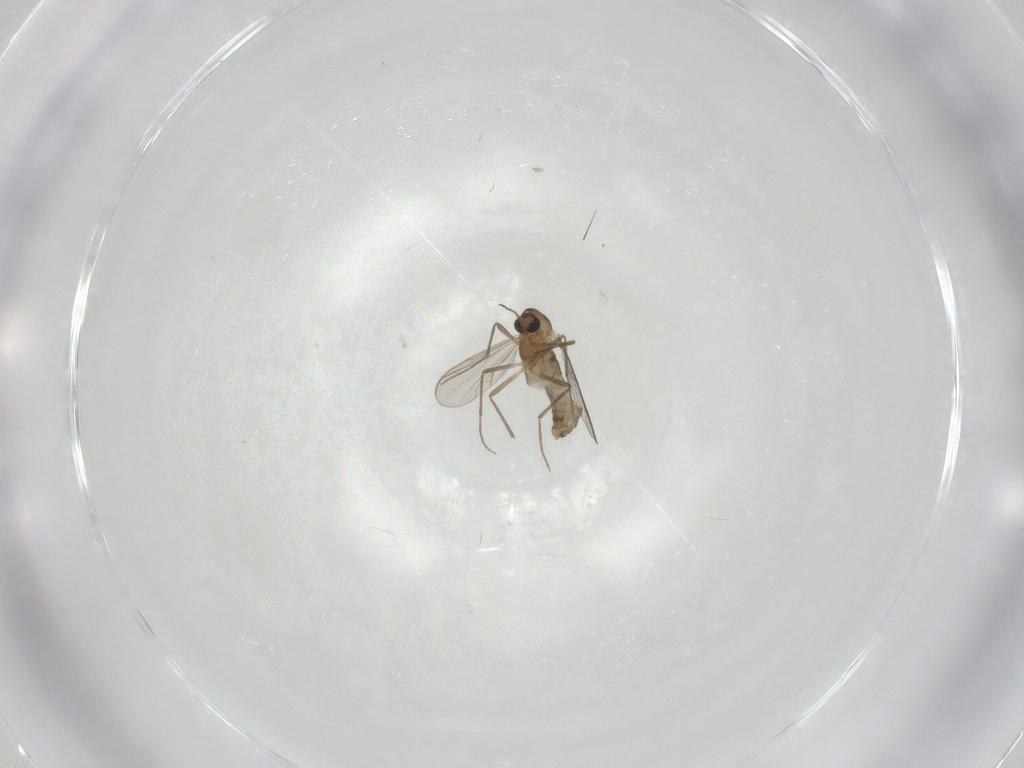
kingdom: Animalia
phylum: Arthropoda
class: Insecta
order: Diptera
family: Chironomidae
